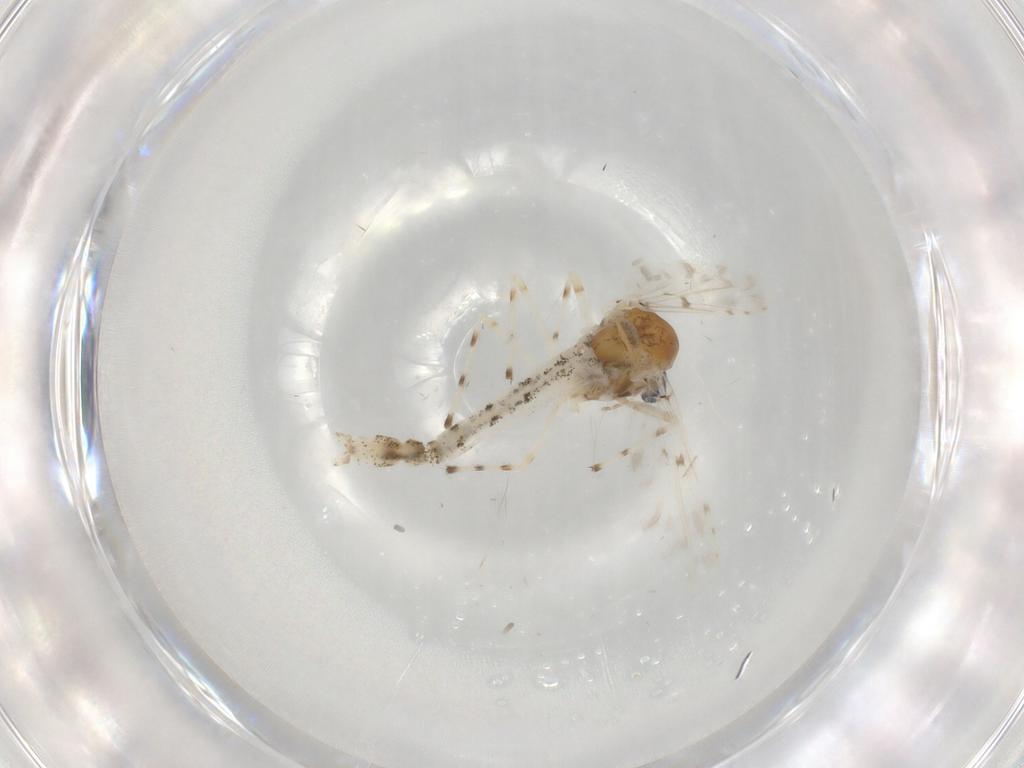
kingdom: Animalia
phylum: Arthropoda
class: Insecta
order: Diptera
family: Chironomidae
